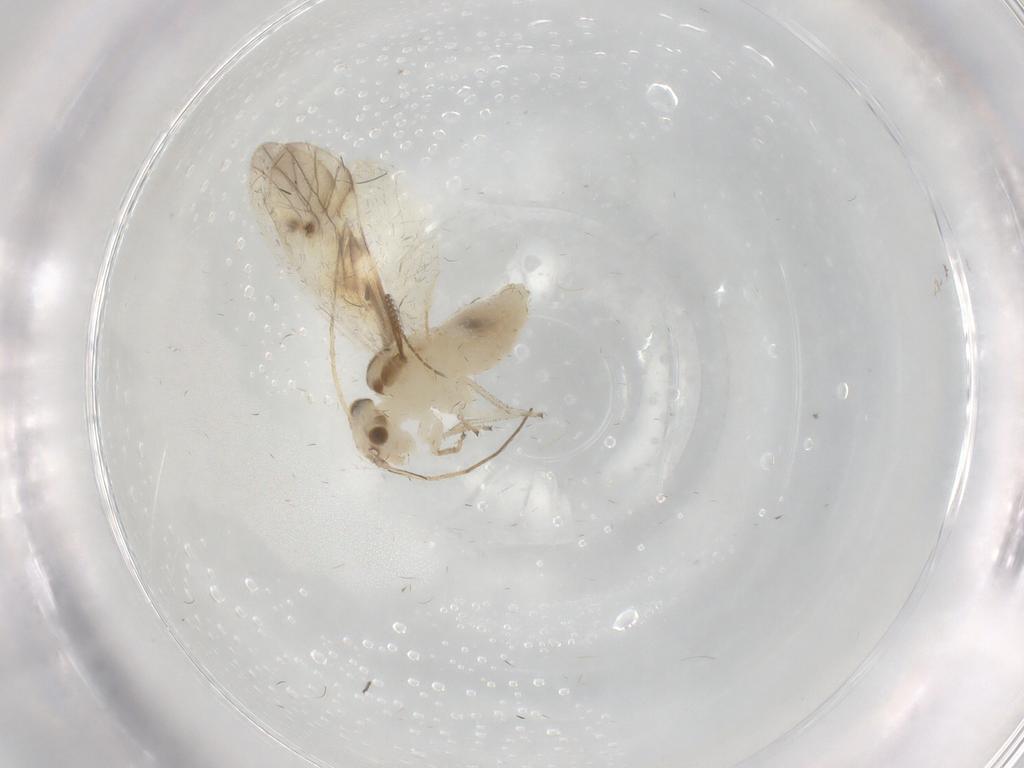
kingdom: Animalia
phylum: Arthropoda
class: Insecta
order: Psocodea
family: Caeciliusidae
